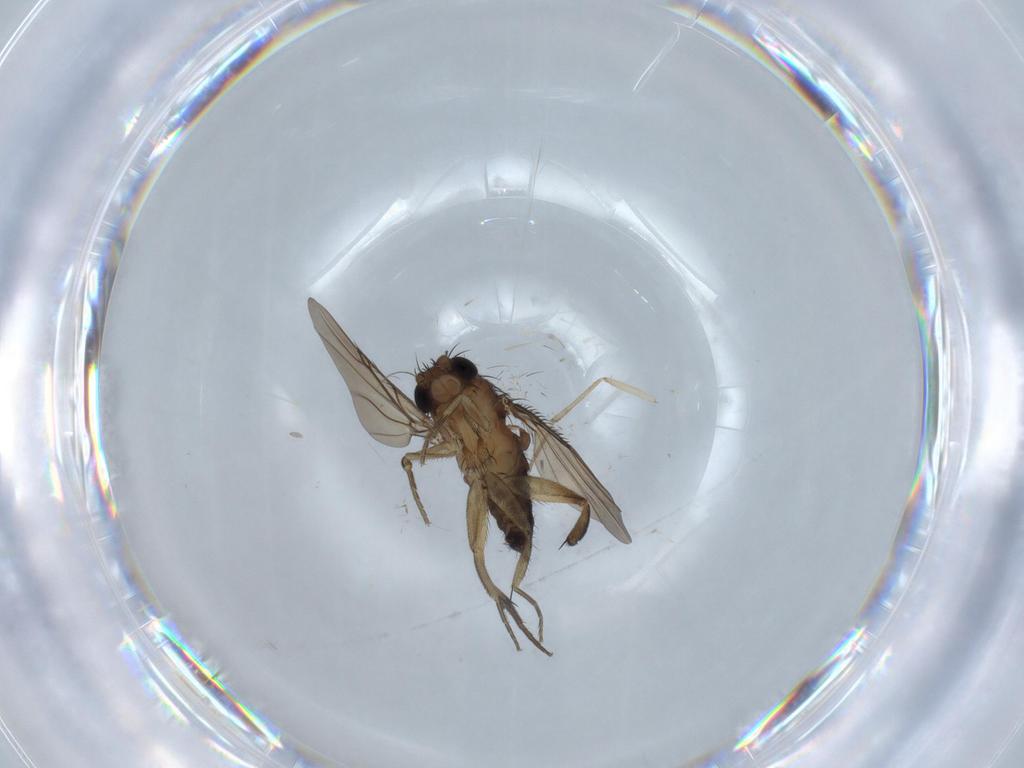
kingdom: Animalia
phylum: Arthropoda
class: Insecta
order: Diptera
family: Phoridae
